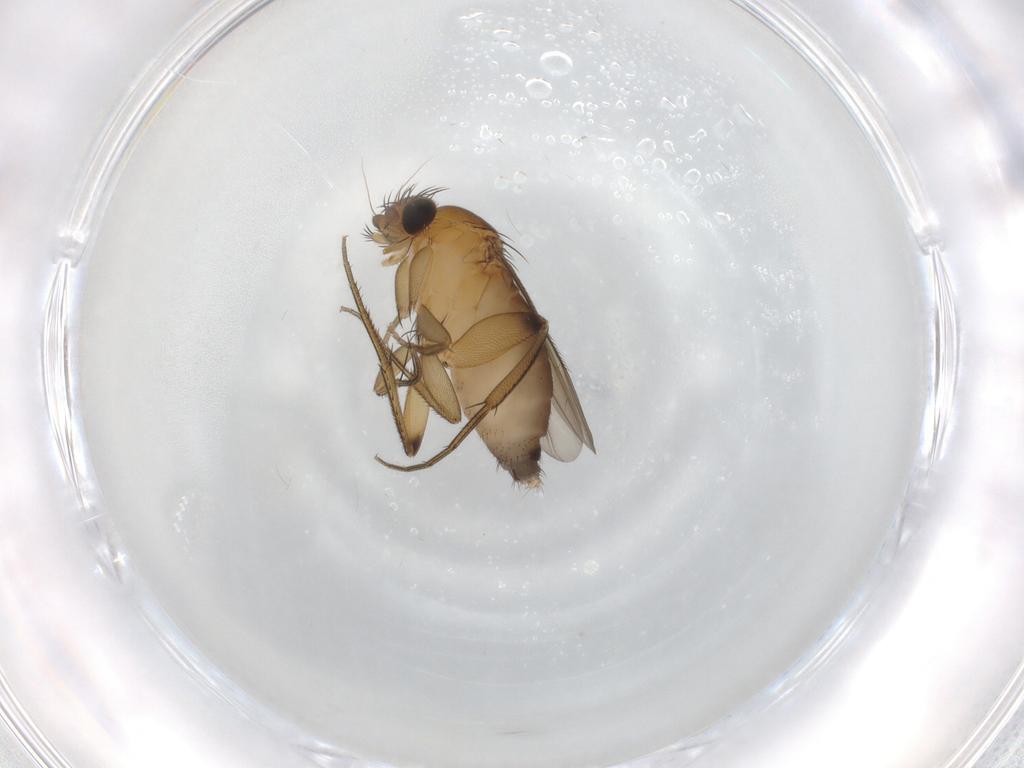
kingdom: Animalia
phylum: Arthropoda
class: Insecta
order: Diptera
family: Phoridae
